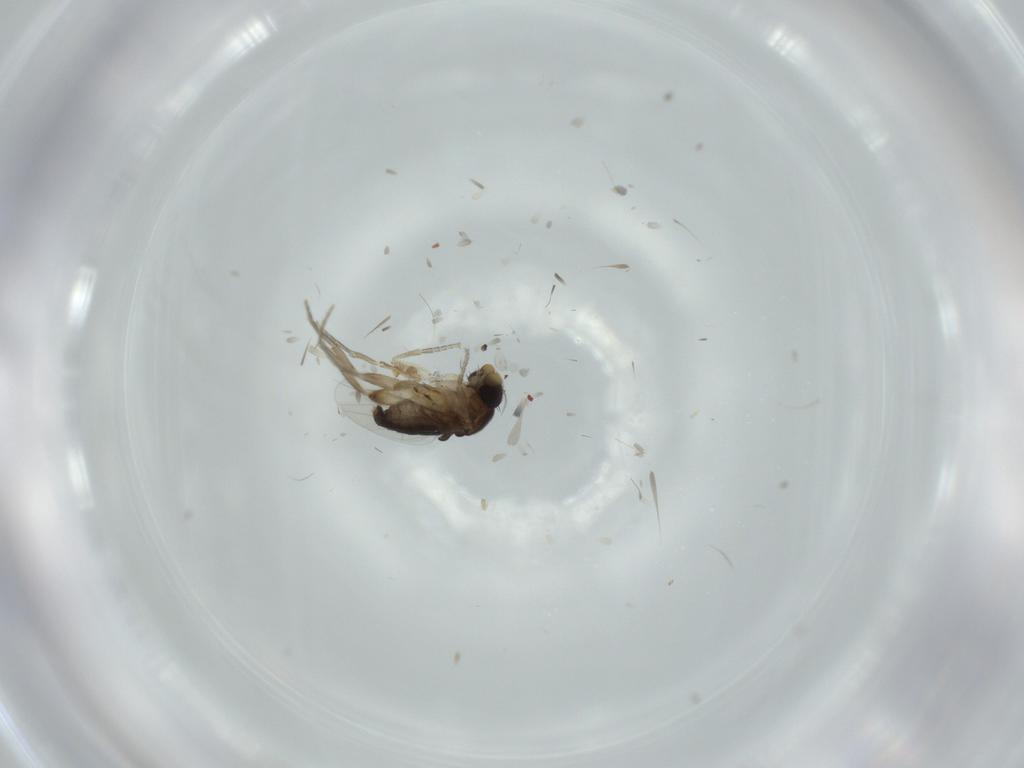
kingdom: Animalia
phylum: Arthropoda
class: Insecta
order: Diptera
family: Phoridae
